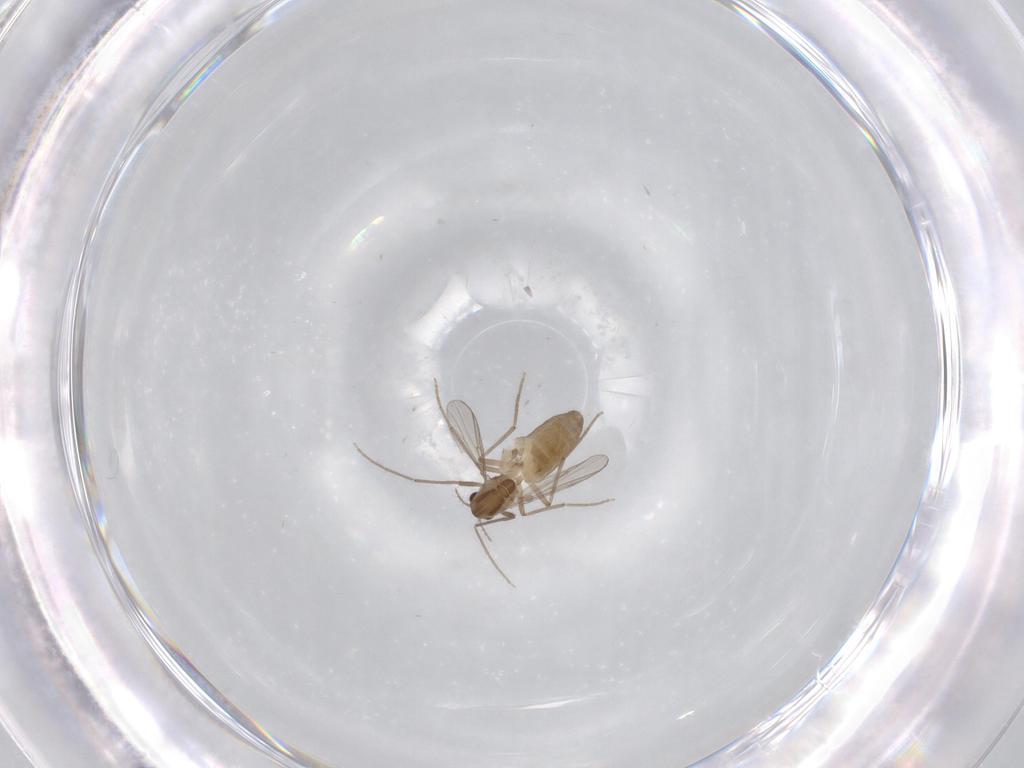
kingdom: Animalia
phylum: Arthropoda
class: Insecta
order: Diptera
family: Chironomidae
